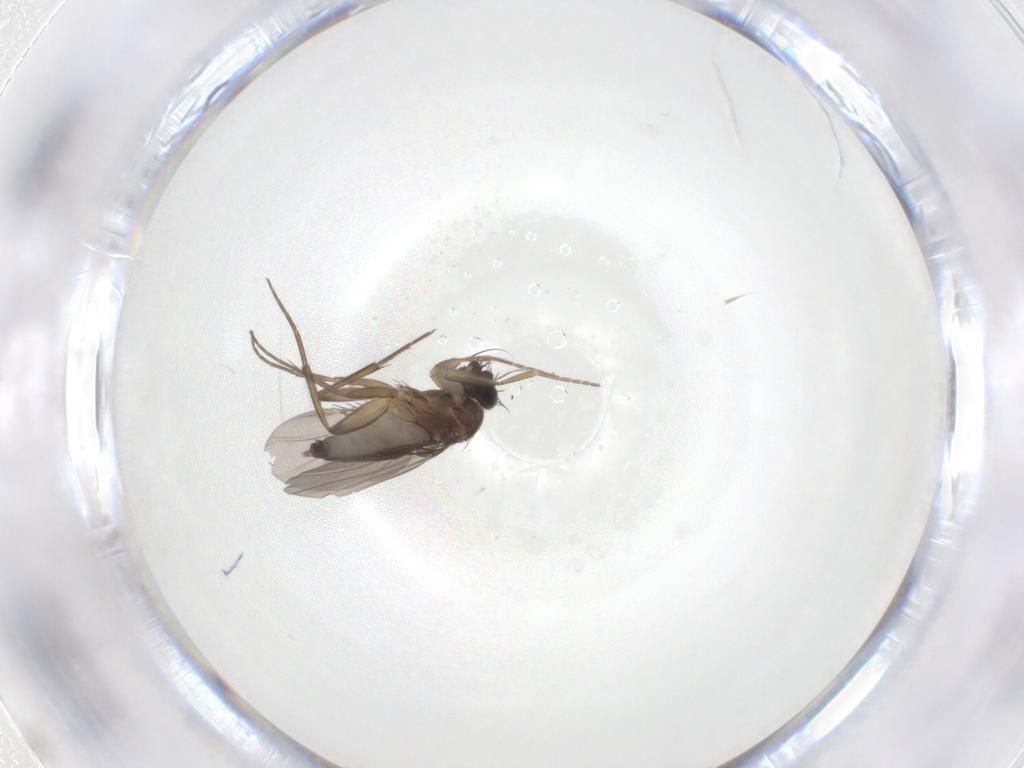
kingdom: Animalia
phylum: Arthropoda
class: Insecta
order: Diptera
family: Phoridae
